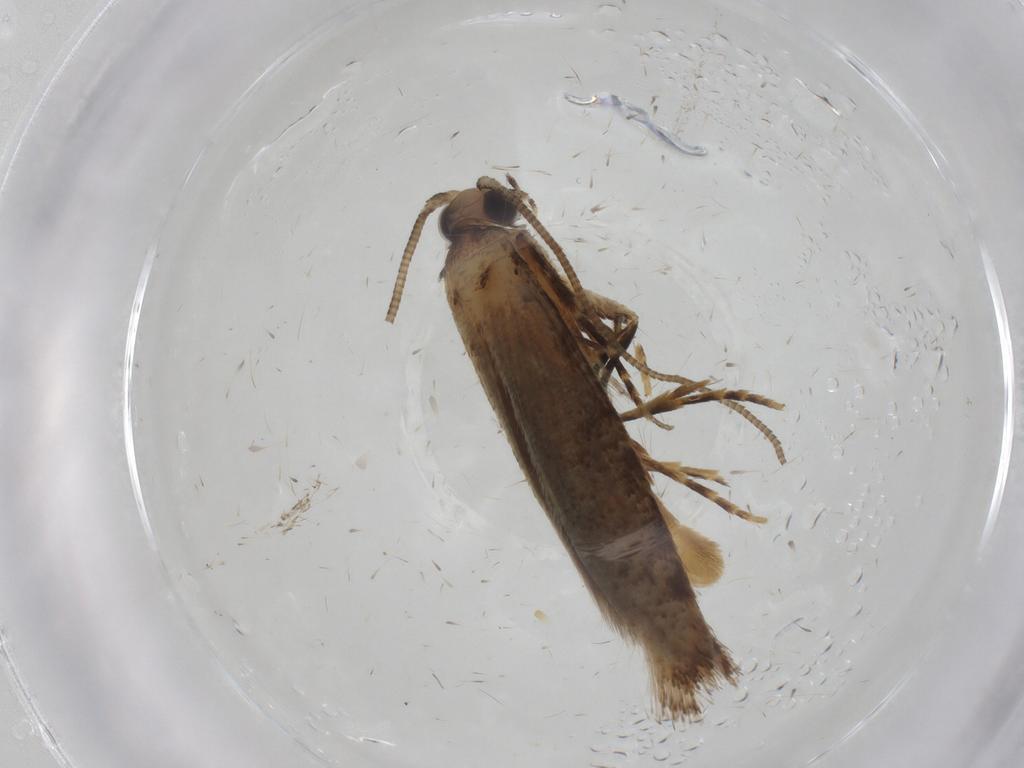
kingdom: Animalia
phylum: Arthropoda
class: Insecta
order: Lepidoptera
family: Tineidae
